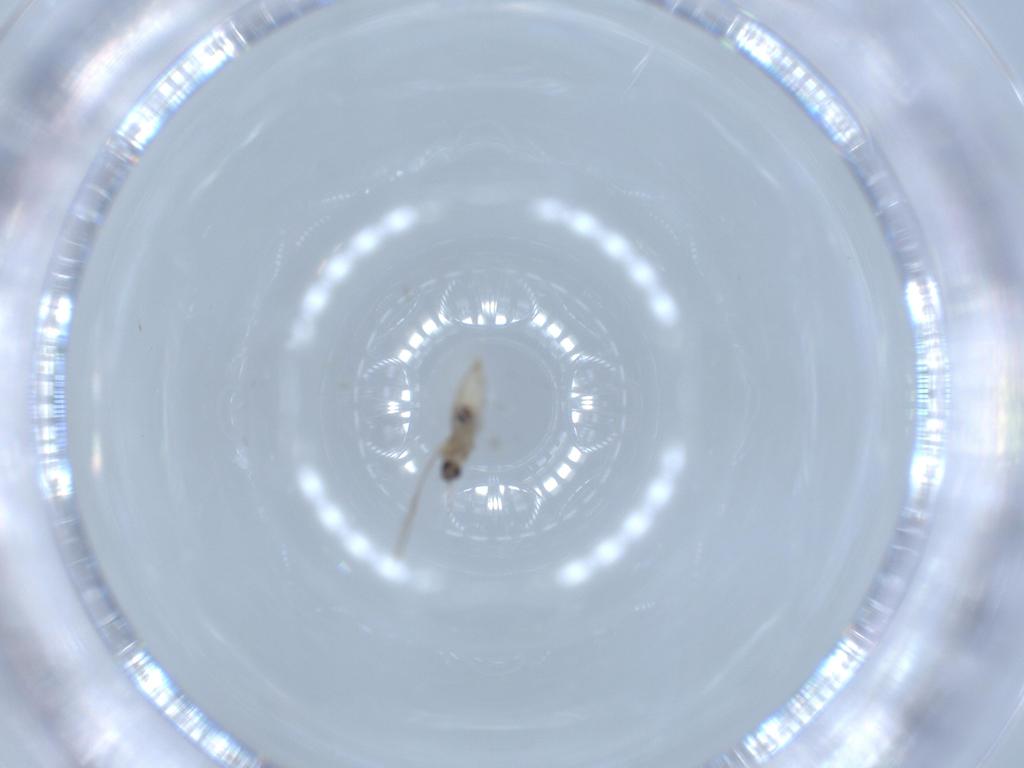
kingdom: Animalia
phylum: Arthropoda
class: Insecta
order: Diptera
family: Cecidomyiidae
